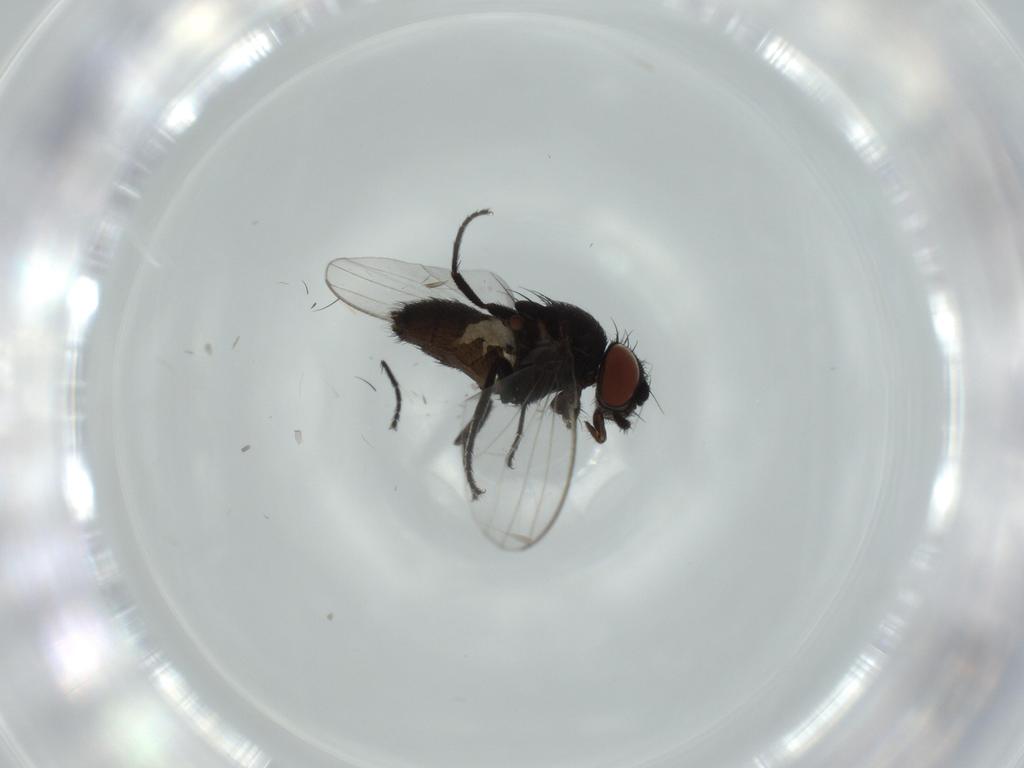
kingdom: Animalia
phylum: Arthropoda
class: Insecta
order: Diptera
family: Milichiidae
